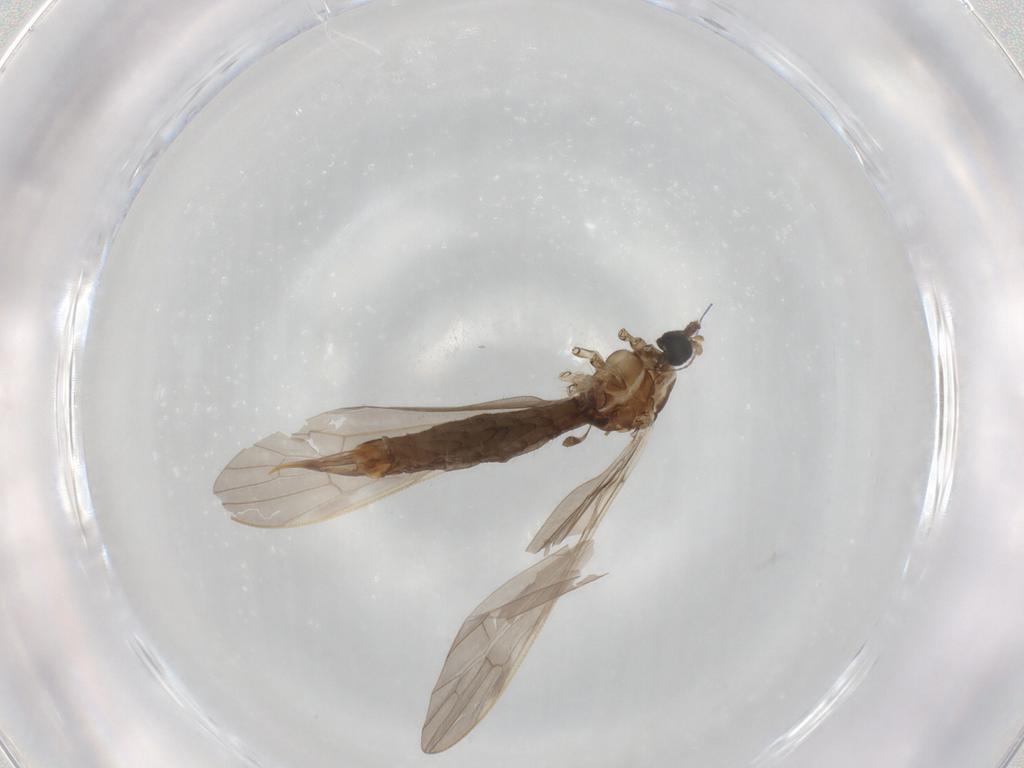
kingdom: Animalia
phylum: Arthropoda
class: Insecta
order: Diptera
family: Limoniidae
